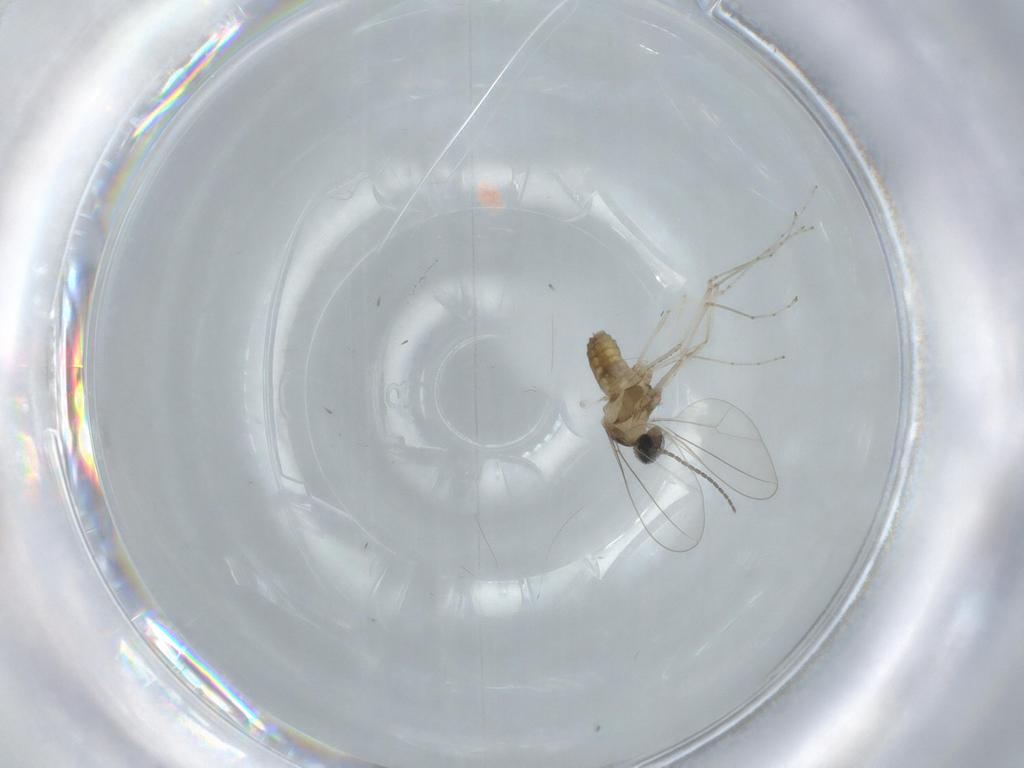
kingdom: Animalia
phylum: Arthropoda
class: Insecta
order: Diptera
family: Cecidomyiidae
